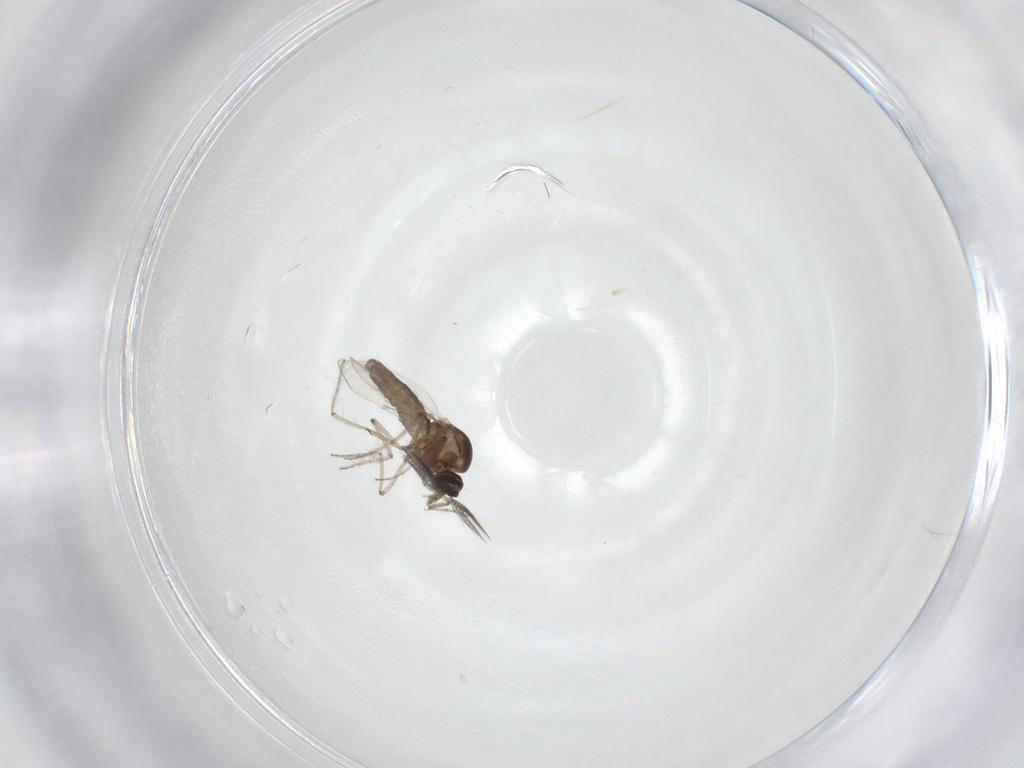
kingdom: Animalia
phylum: Arthropoda
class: Insecta
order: Diptera
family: Ceratopogonidae
